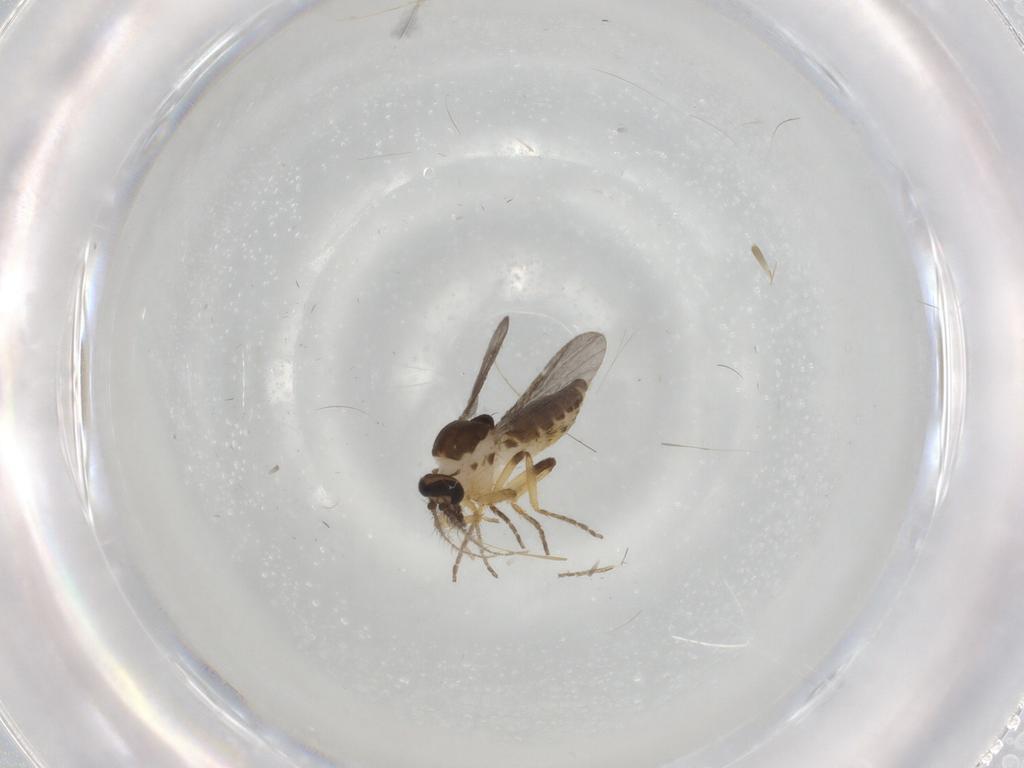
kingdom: Animalia
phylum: Arthropoda
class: Insecta
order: Diptera
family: Ceratopogonidae
